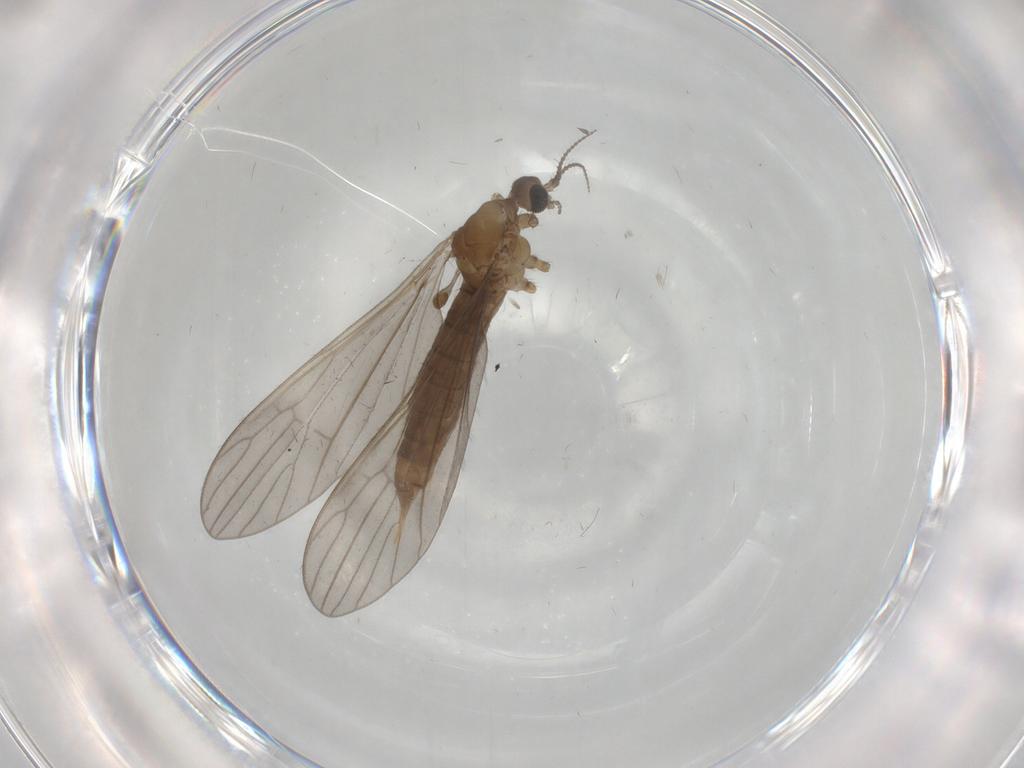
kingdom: Animalia
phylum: Arthropoda
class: Insecta
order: Diptera
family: Limoniidae
